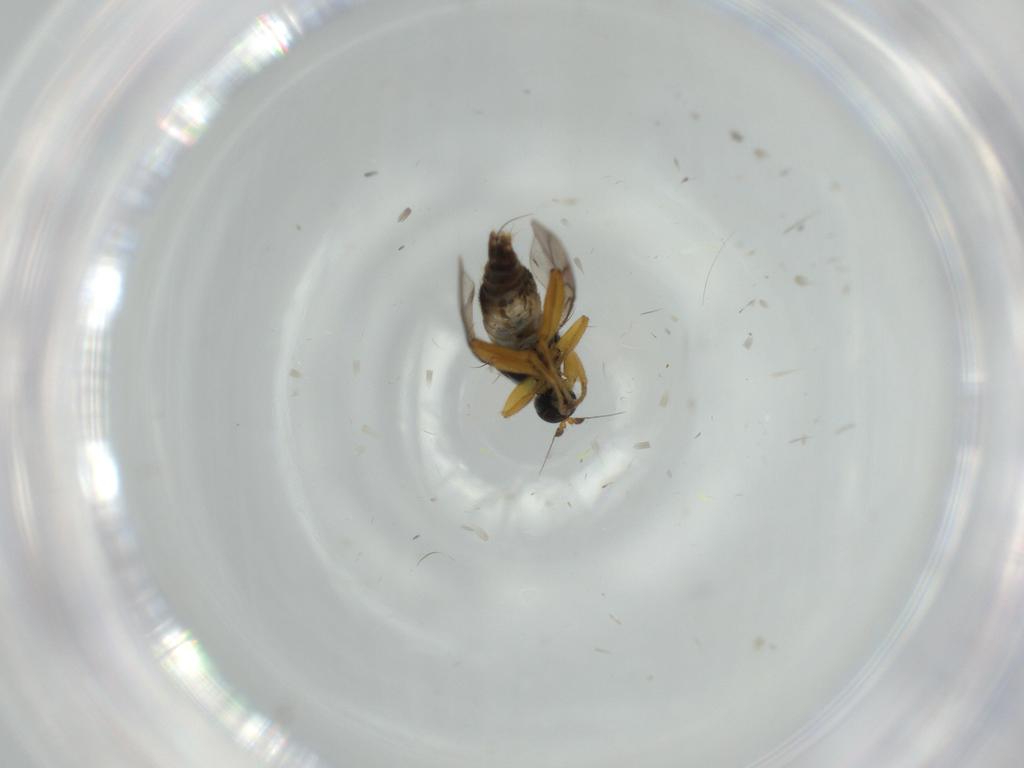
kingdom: Animalia
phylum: Arthropoda
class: Insecta
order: Diptera
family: Hybotidae
